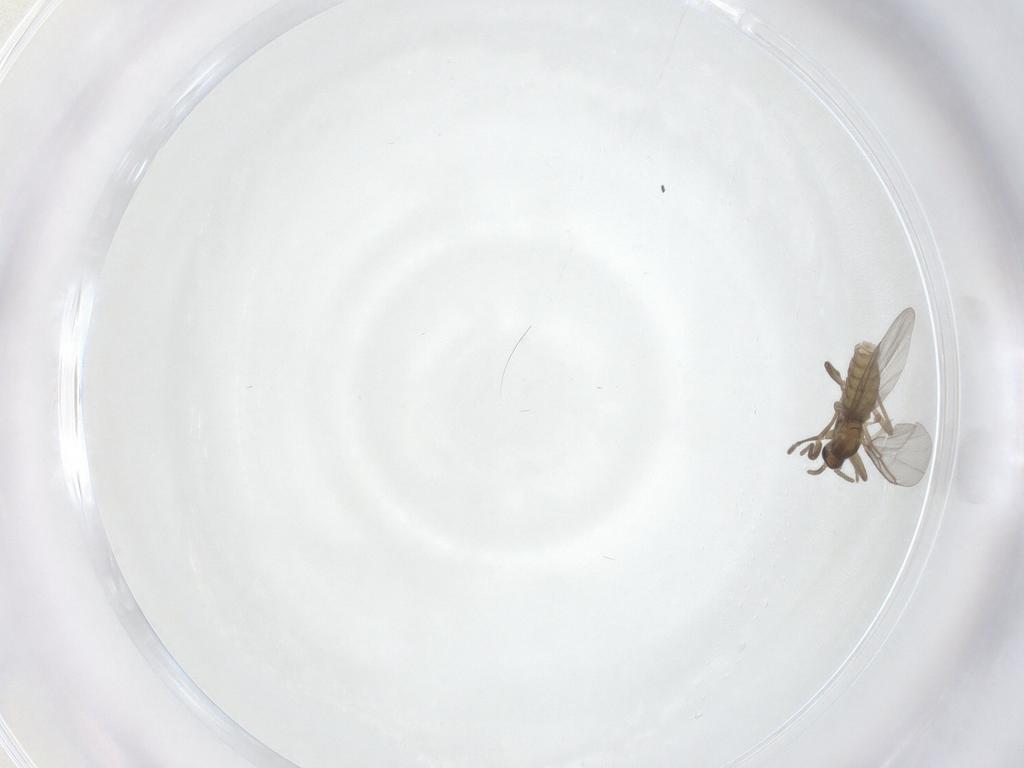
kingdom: Animalia
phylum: Arthropoda
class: Insecta
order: Diptera
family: Cecidomyiidae
